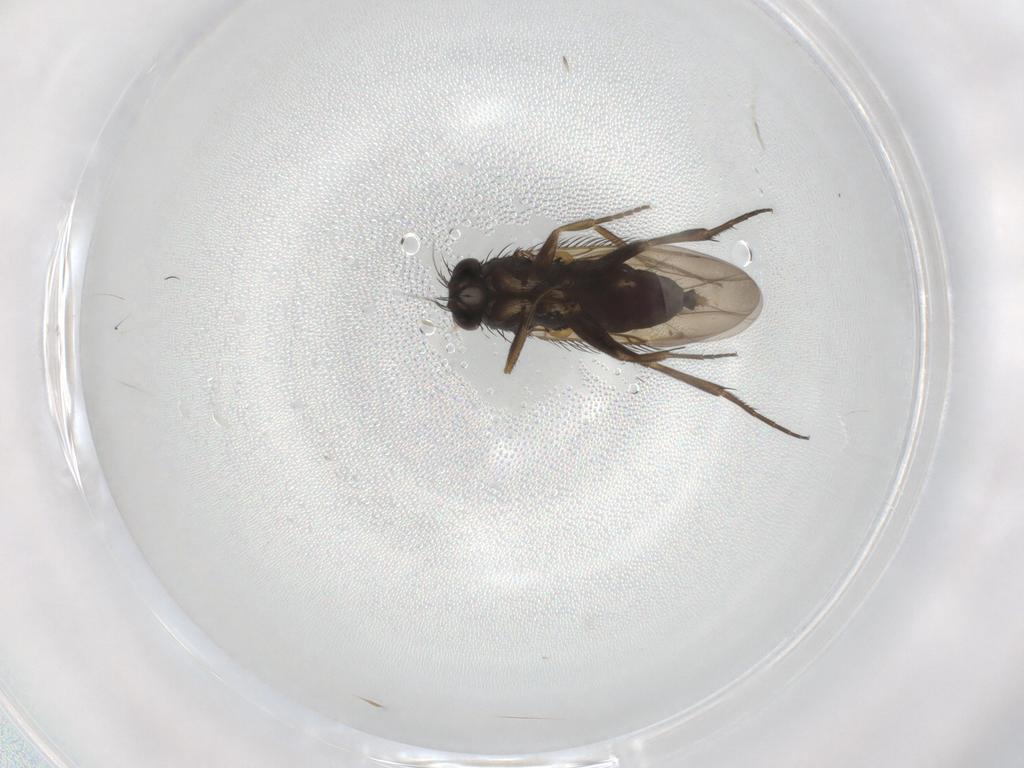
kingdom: Animalia
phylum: Arthropoda
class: Insecta
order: Diptera
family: Phoridae
